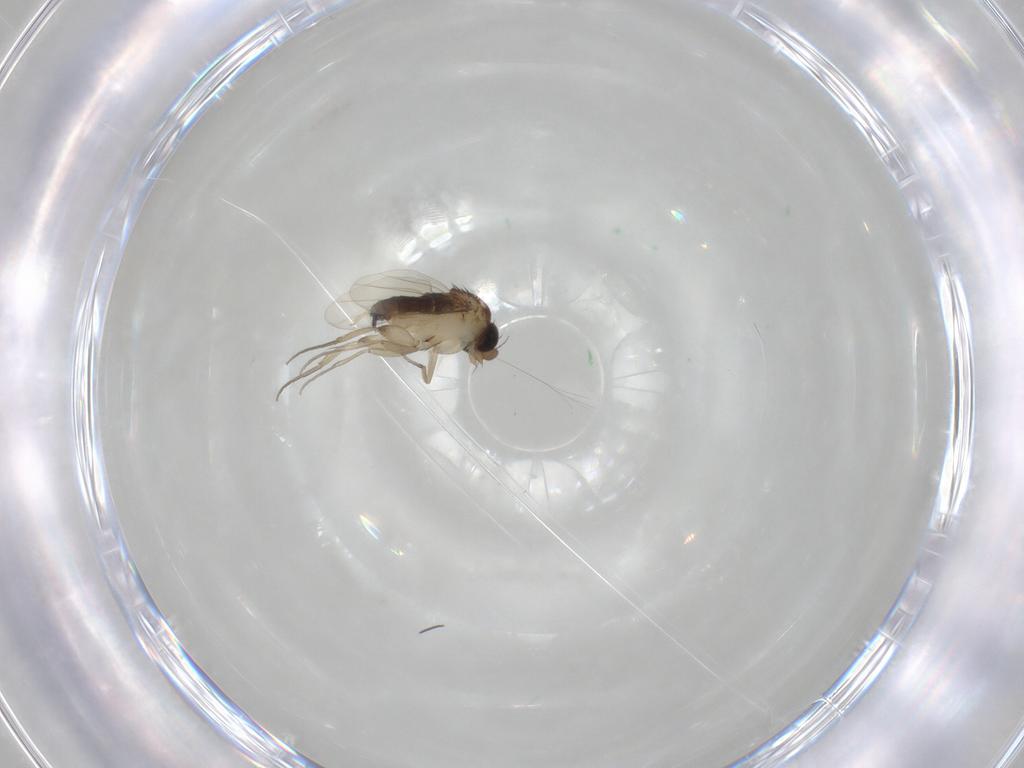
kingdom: Animalia
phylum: Arthropoda
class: Insecta
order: Diptera
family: Phoridae
